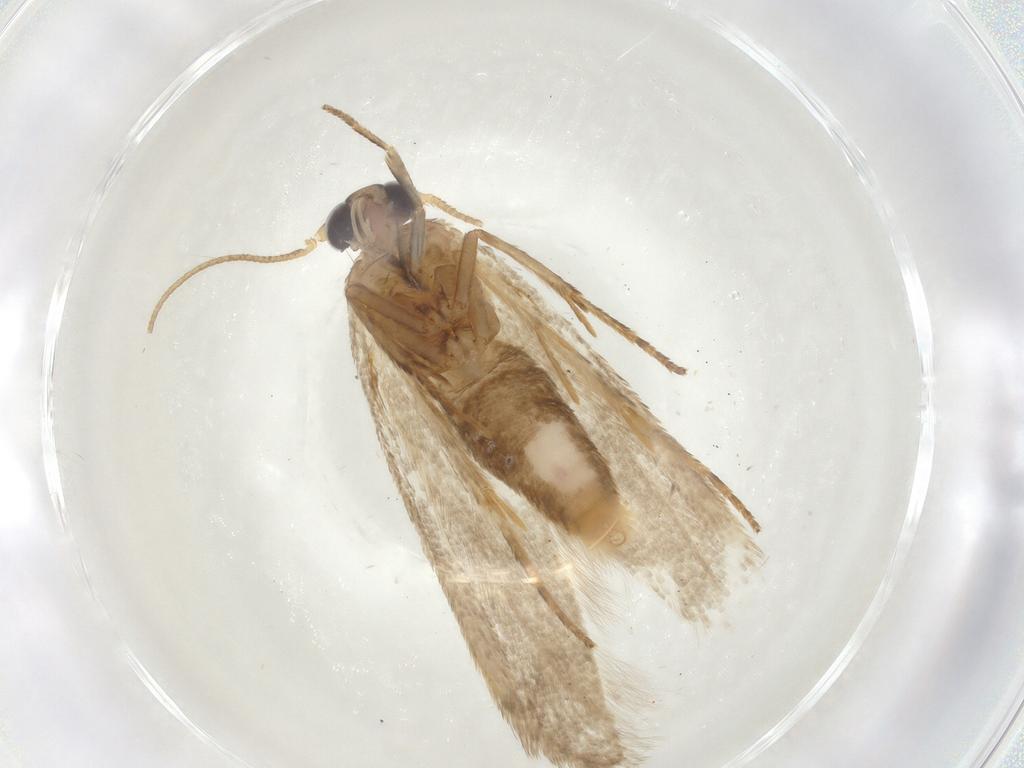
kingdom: Animalia
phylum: Arthropoda
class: Insecta
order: Lepidoptera
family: Coleophoridae
